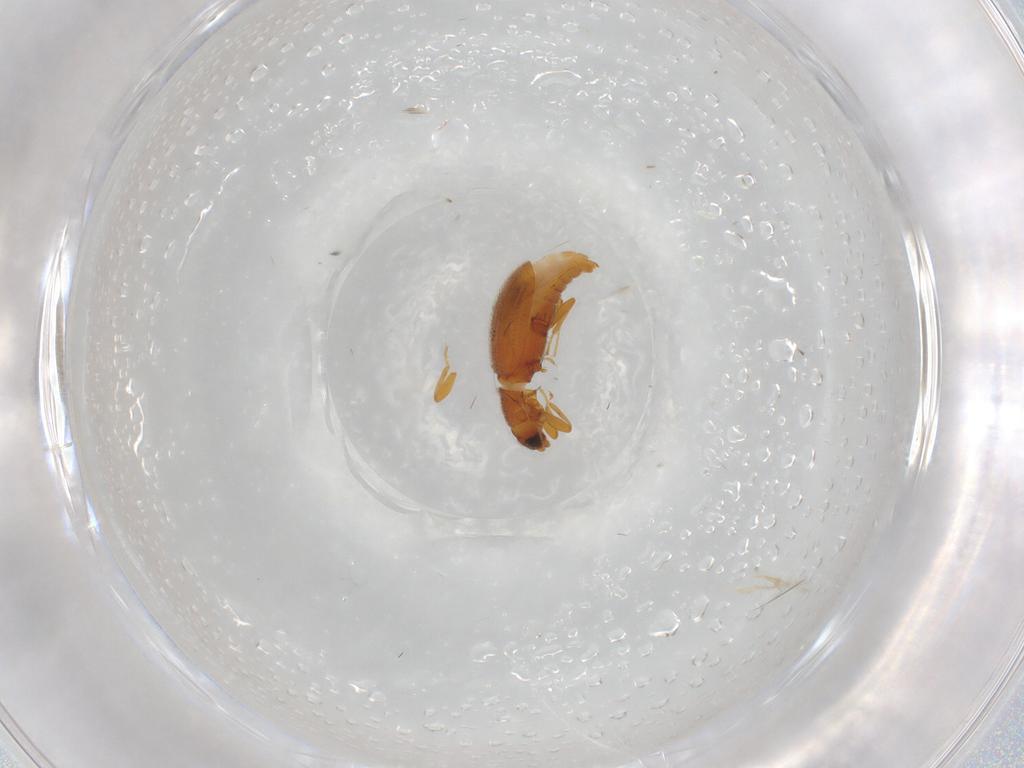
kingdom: Animalia
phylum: Arthropoda
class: Insecta
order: Coleoptera
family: Latridiidae
